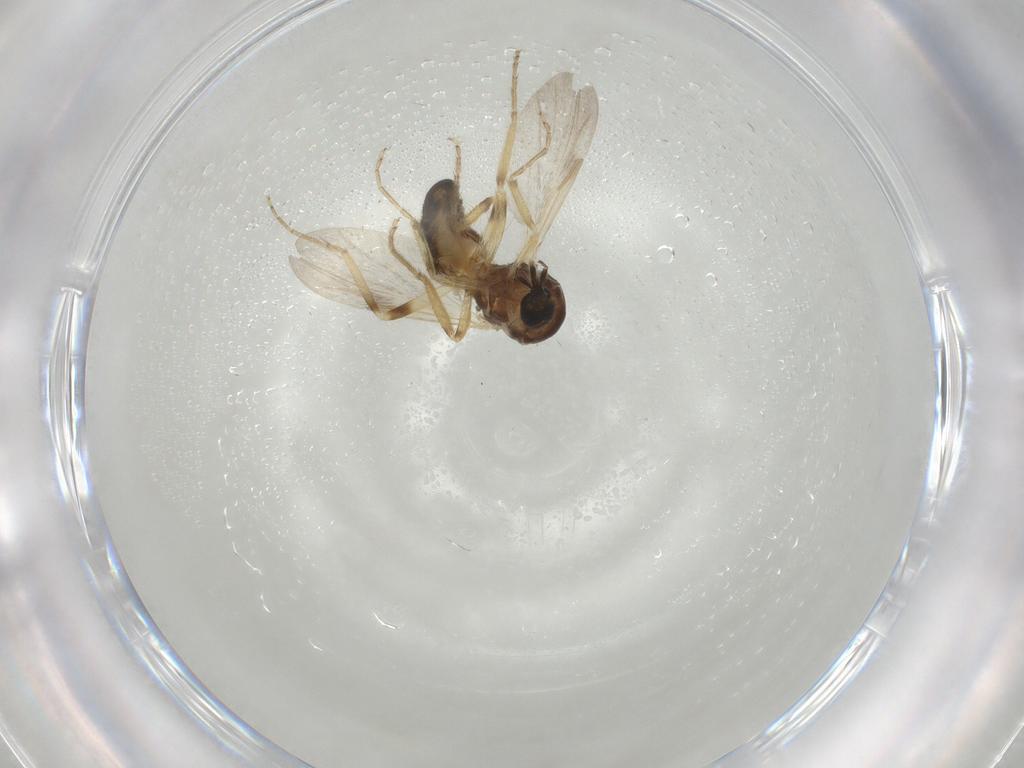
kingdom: Animalia
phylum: Arthropoda
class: Insecta
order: Diptera
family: Ceratopogonidae
